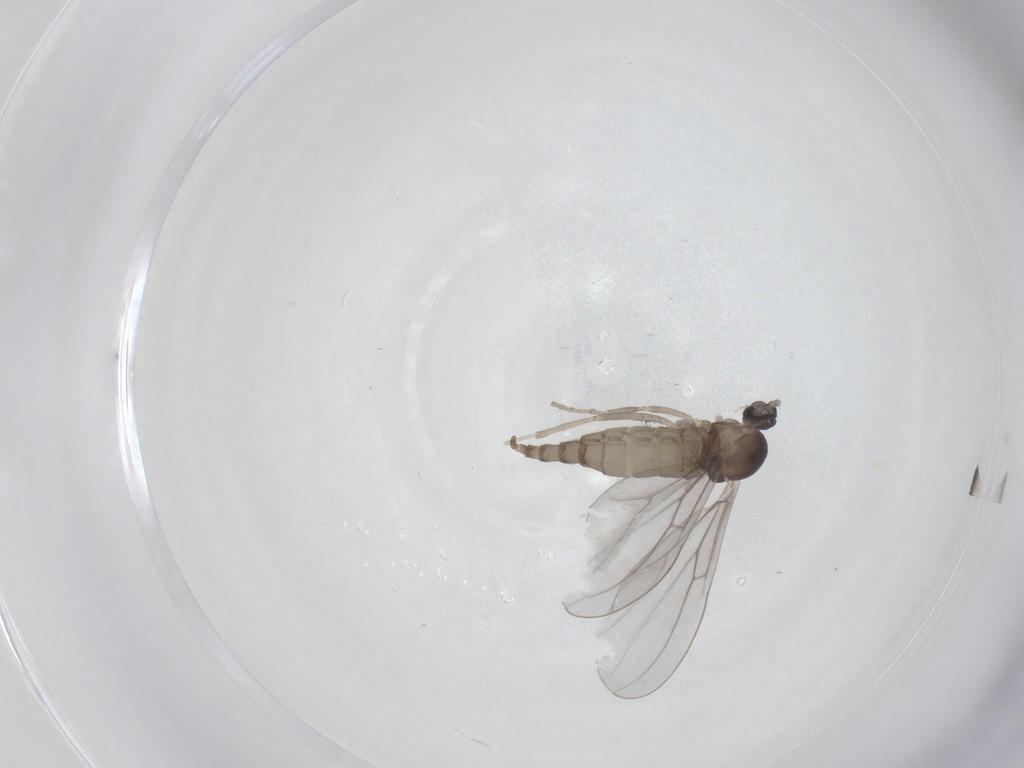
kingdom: Animalia
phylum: Arthropoda
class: Insecta
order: Diptera
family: Cecidomyiidae
